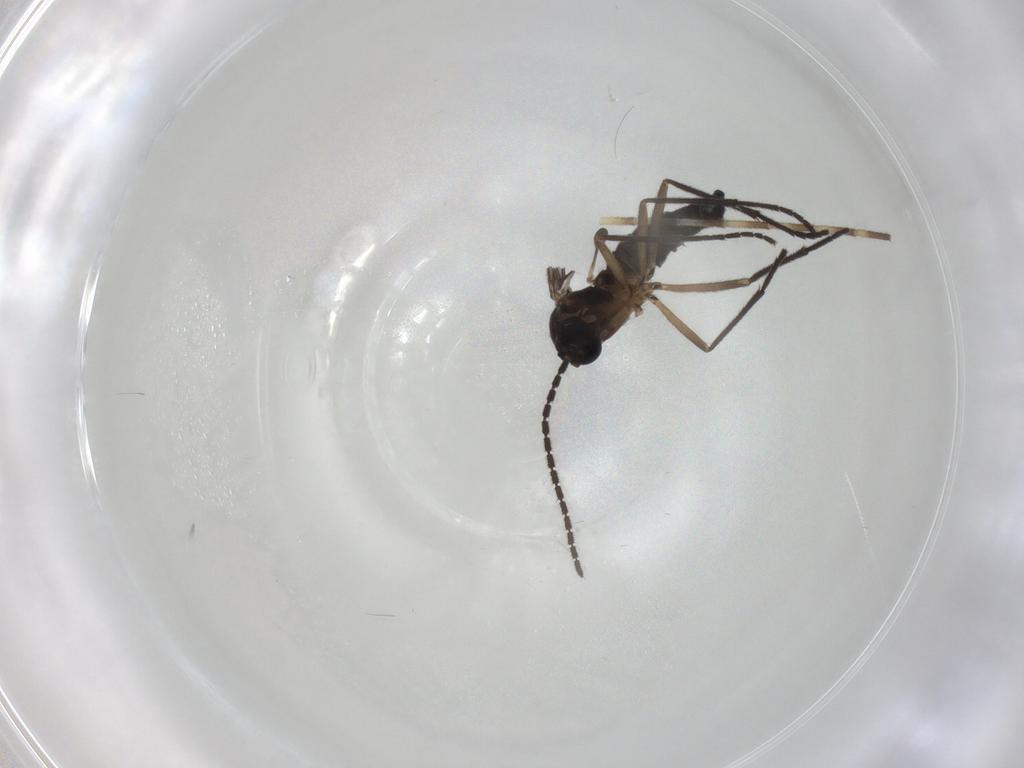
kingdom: Animalia
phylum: Arthropoda
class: Insecta
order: Diptera
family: Sciaridae
